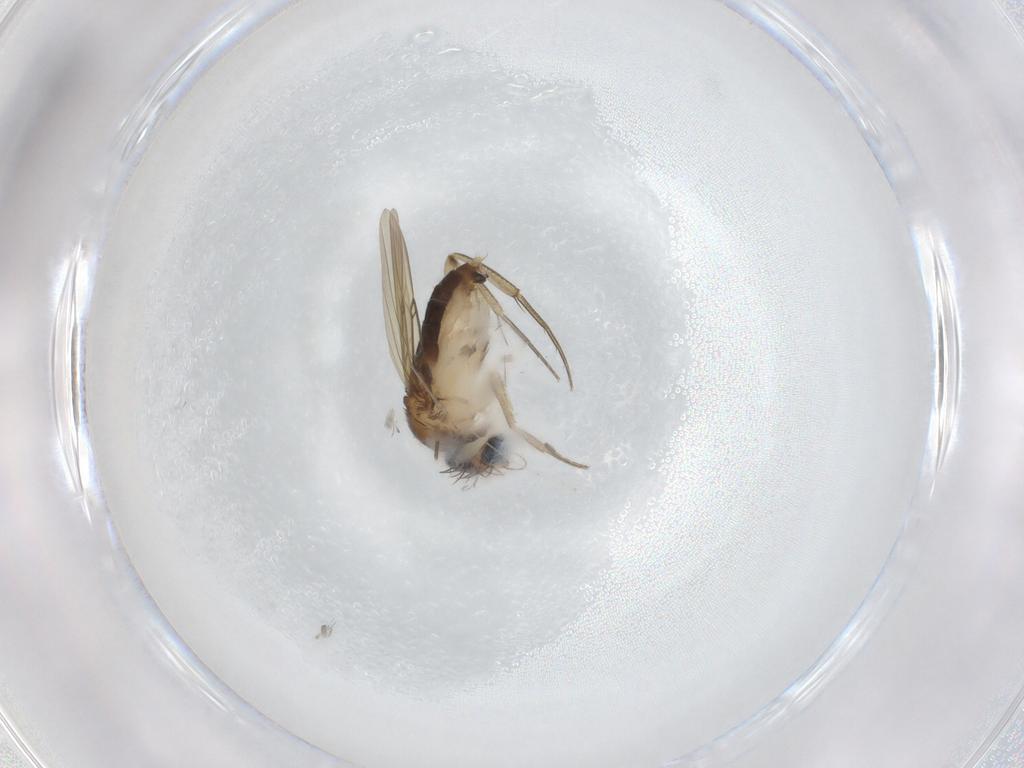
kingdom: Animalia
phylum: Arthropoda
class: Insecta
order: Diptera
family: Phoridae
